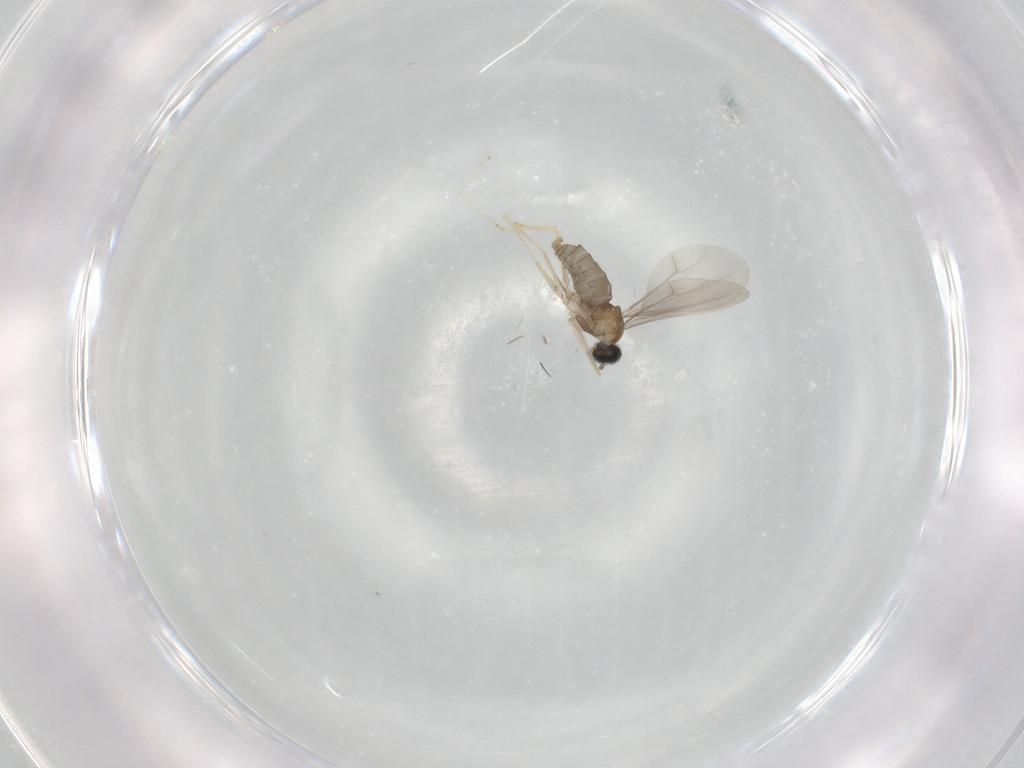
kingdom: Animalia
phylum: Arthropoda
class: Insecta
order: Diptera
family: Cecidomyiidae
